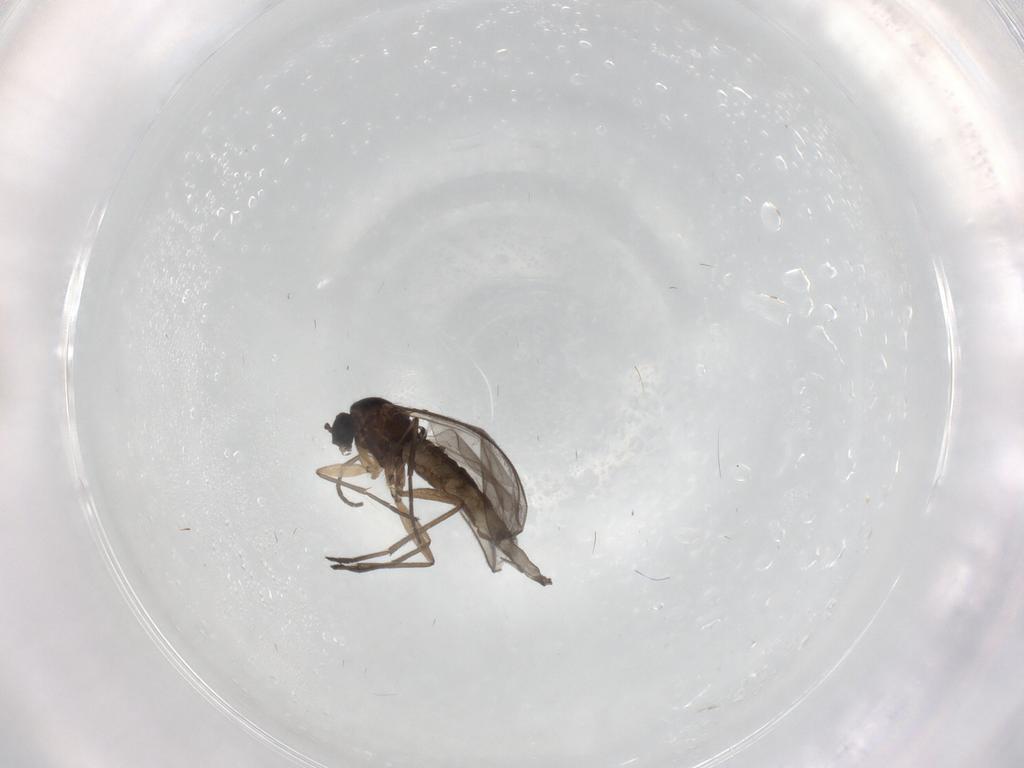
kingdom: Animalia
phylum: Arthropoda
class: Insecta
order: Diptera
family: Sciaridae
